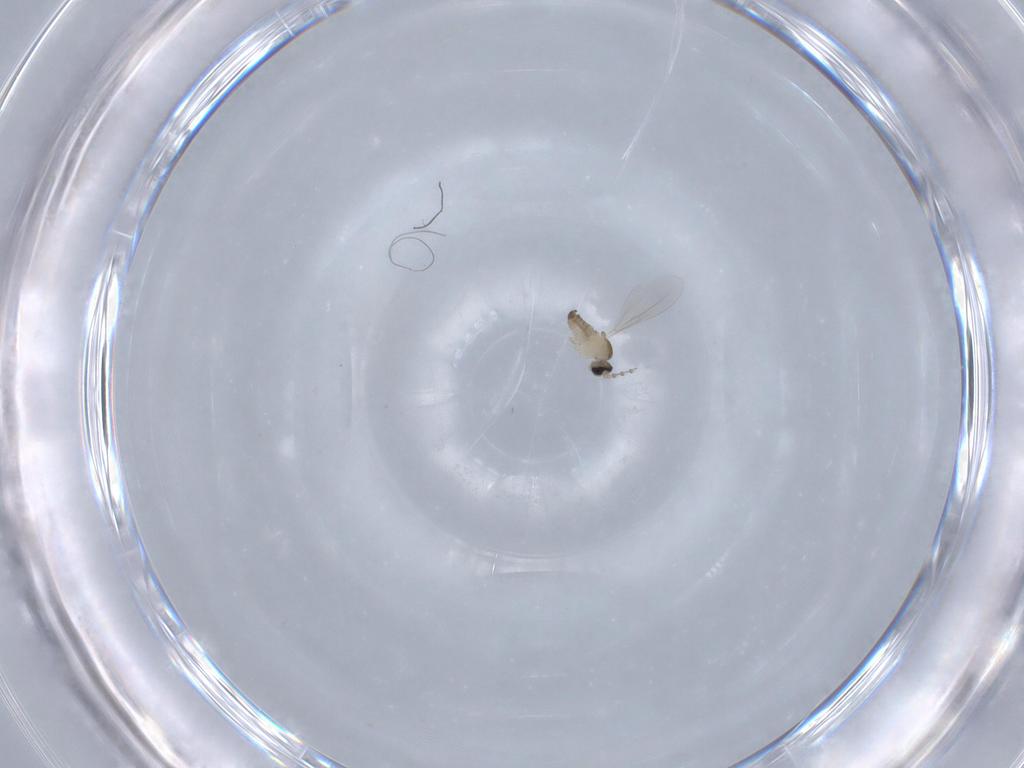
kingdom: Animalia
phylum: Arthropoda
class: Insecta
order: Diptera
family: Cecidomyiidae
